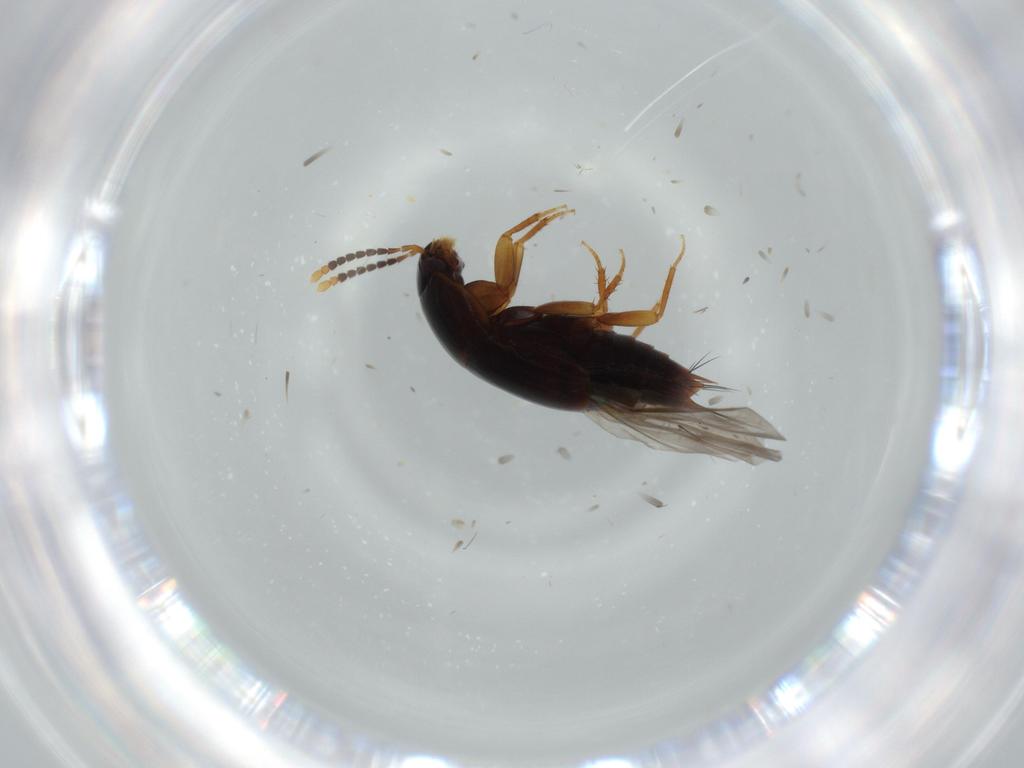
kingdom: Animalia
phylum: Arthropoda
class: Insecta
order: Coleoptera
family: Staphylinidae
